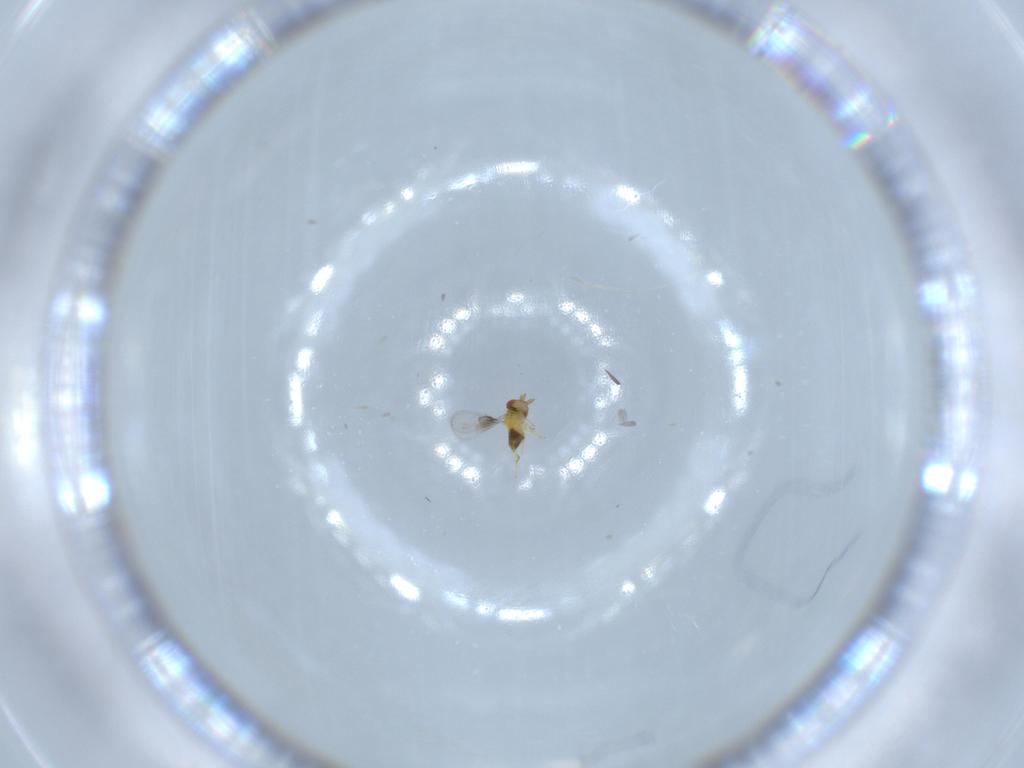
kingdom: Animalia
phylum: Arthropoda
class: Insecta
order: Hymenoptera
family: Trichogrammatidae
